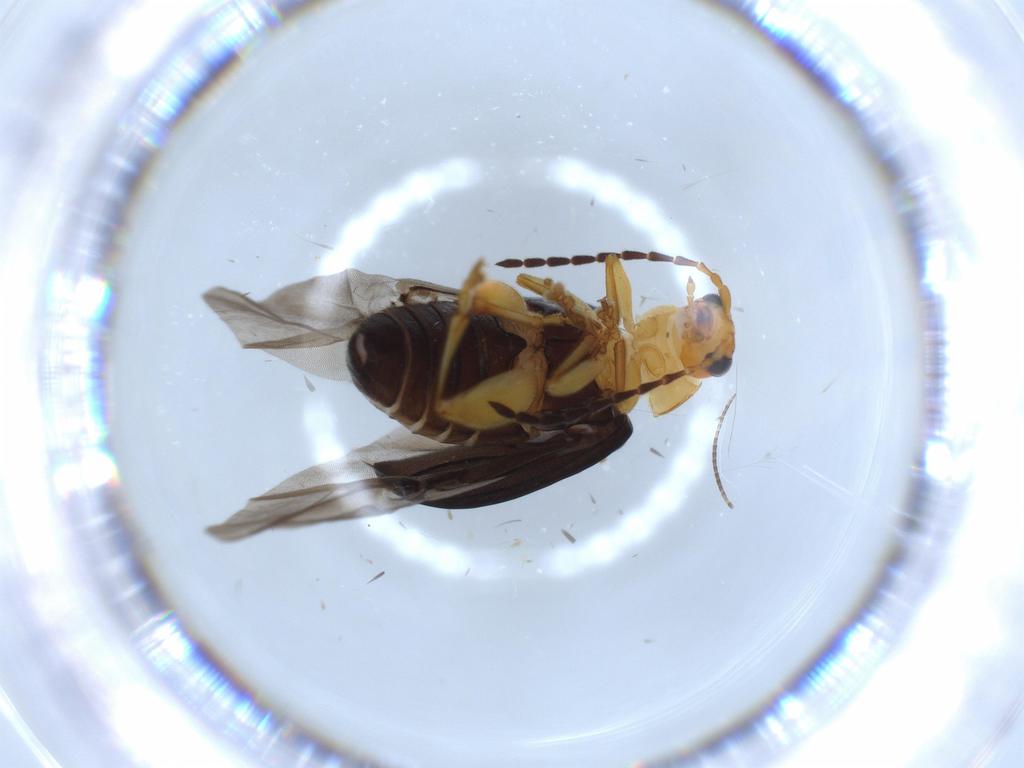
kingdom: Animalia
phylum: Arthropoda
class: Insecta
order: Coleoptera
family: Chrysomelidae
